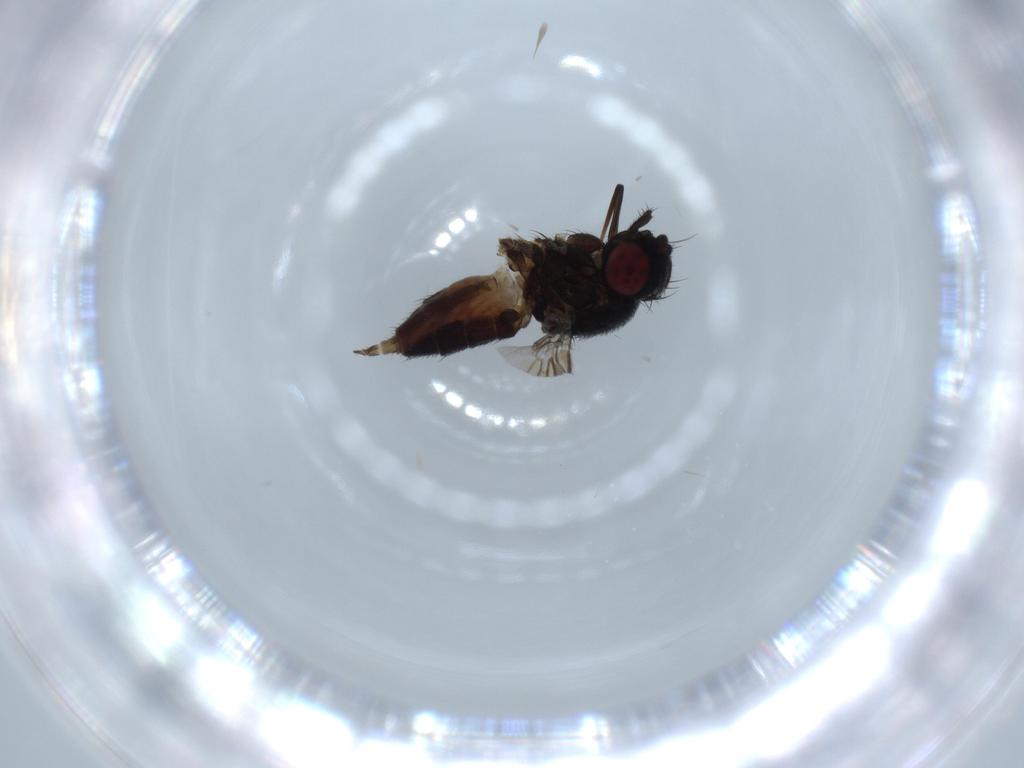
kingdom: Animalia
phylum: Arthropoda
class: Insecta
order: Diptera
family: Milichiidae
